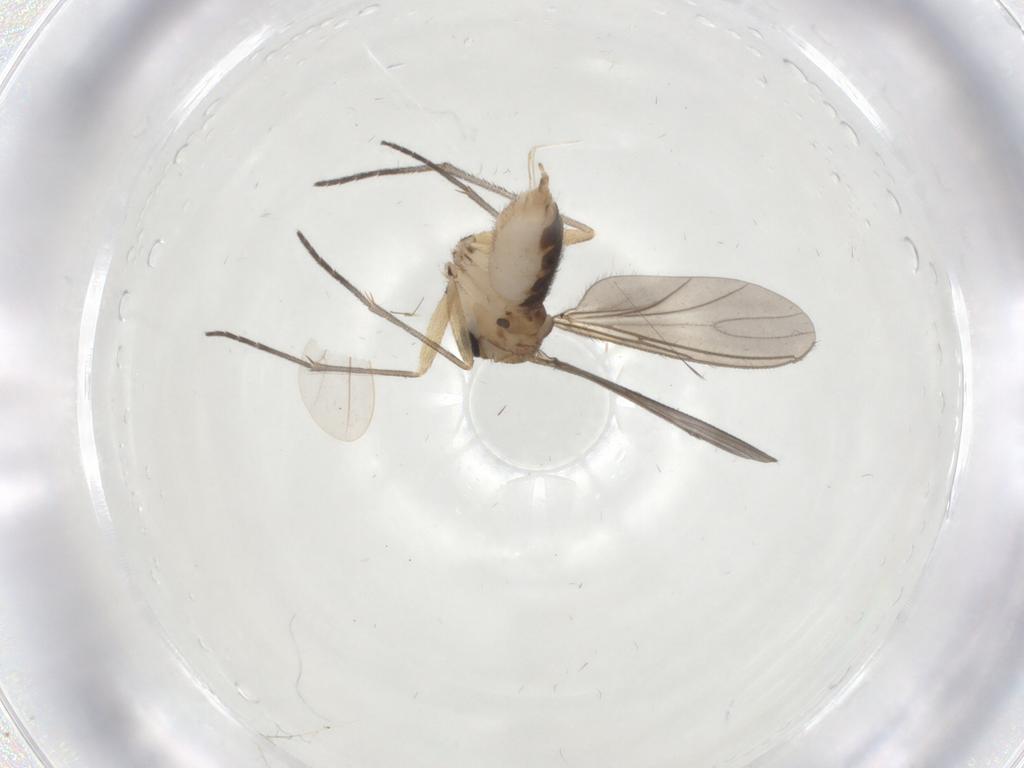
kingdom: Animalia
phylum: Arthropoda
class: Insecta
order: Diptera
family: Sciaridae
